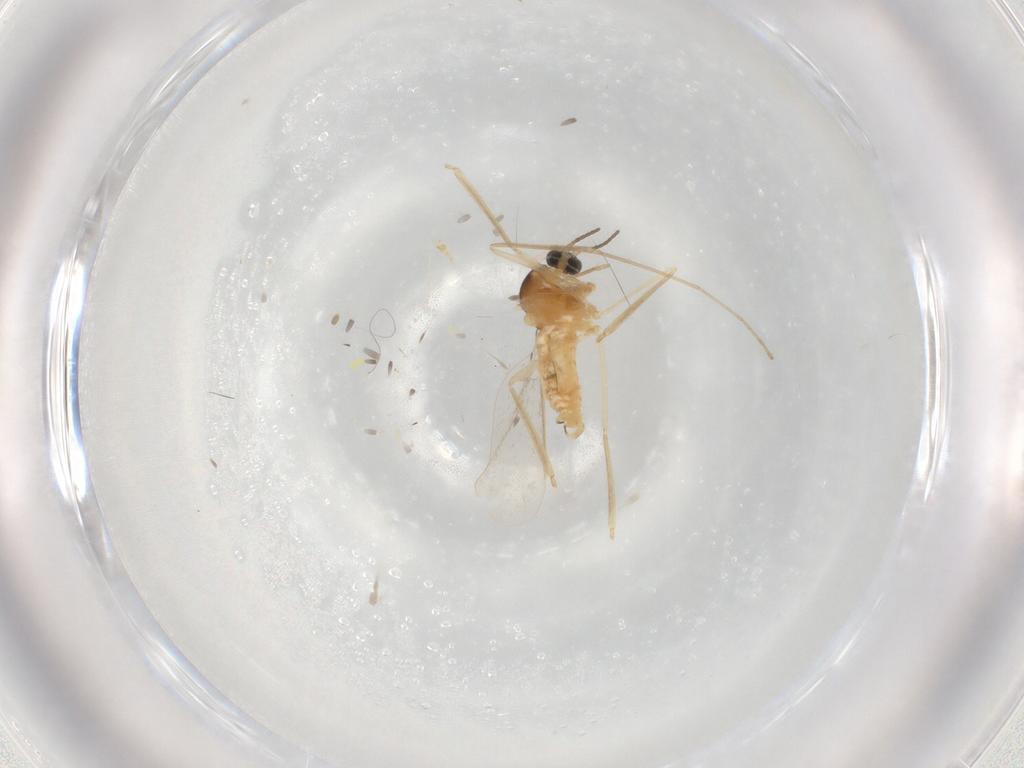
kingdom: Animalia
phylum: Arthropoda
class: Insecta
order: Diptera
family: Cecidomyiidae
